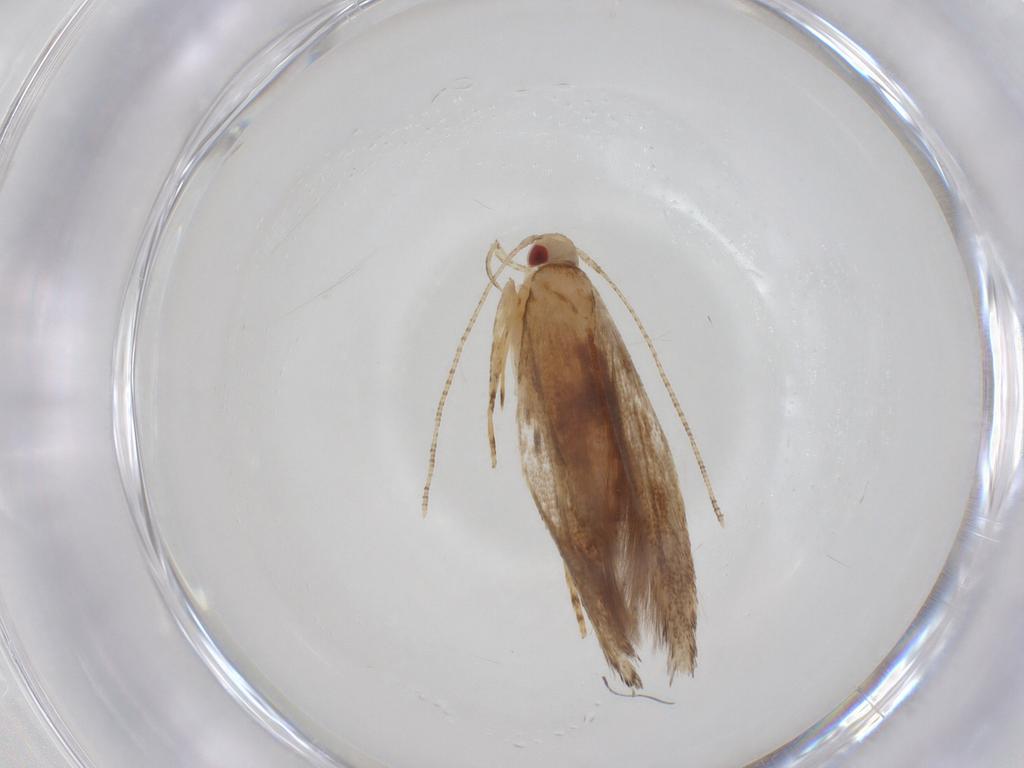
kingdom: Animalia
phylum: Arthropoda
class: Insecta
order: Lepidoptera
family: Erebidae
